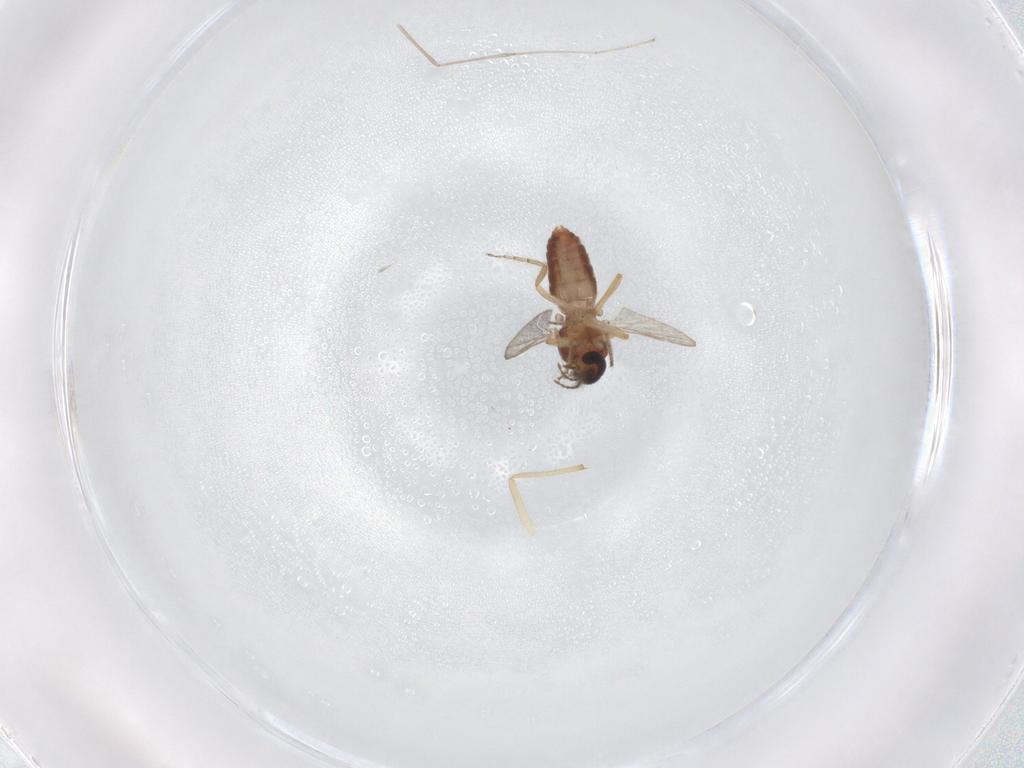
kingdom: Animalia
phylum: Arthropoda
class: Insecta
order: Diptera
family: Ceratopogonidae
